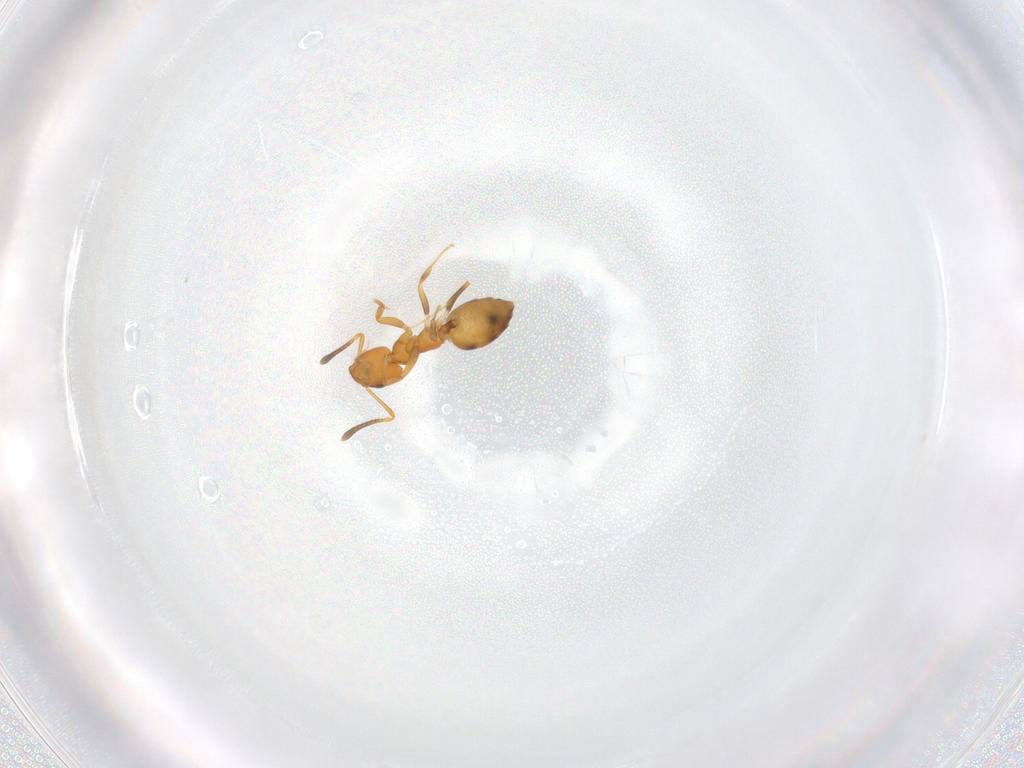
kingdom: Animalia
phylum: Arthropoda
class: Insecta
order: Hymenoptera
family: Formicidae
